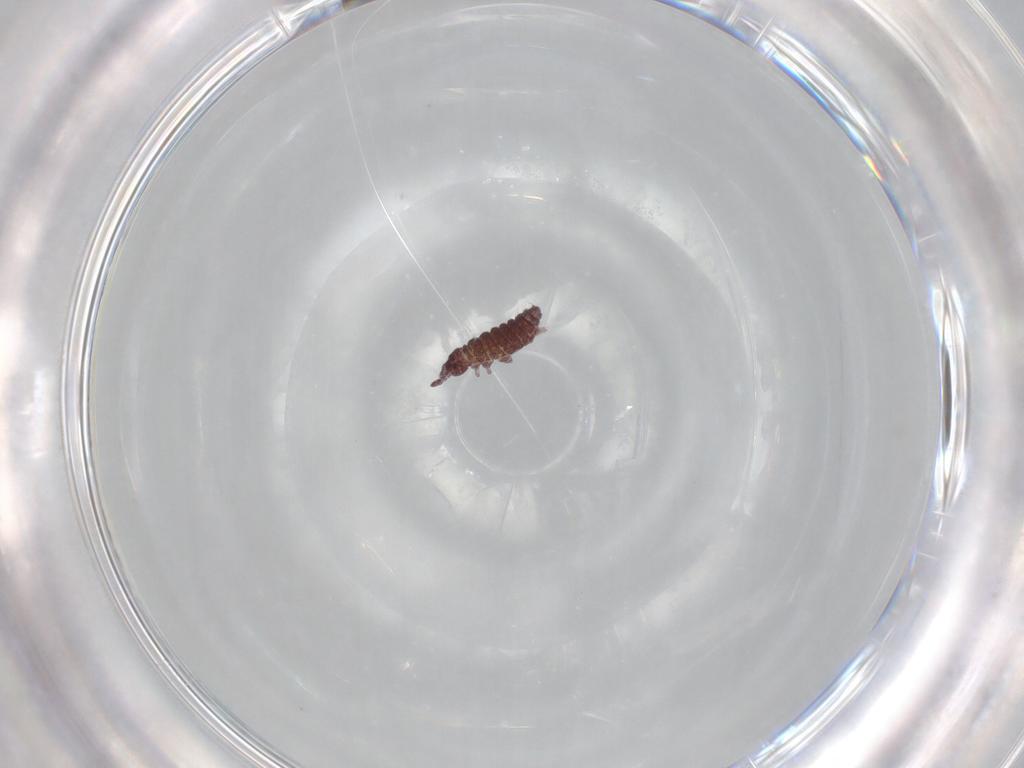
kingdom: Animalia
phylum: Arthropoda
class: Collembola
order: Poduromorpha
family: Hypogastruridae
